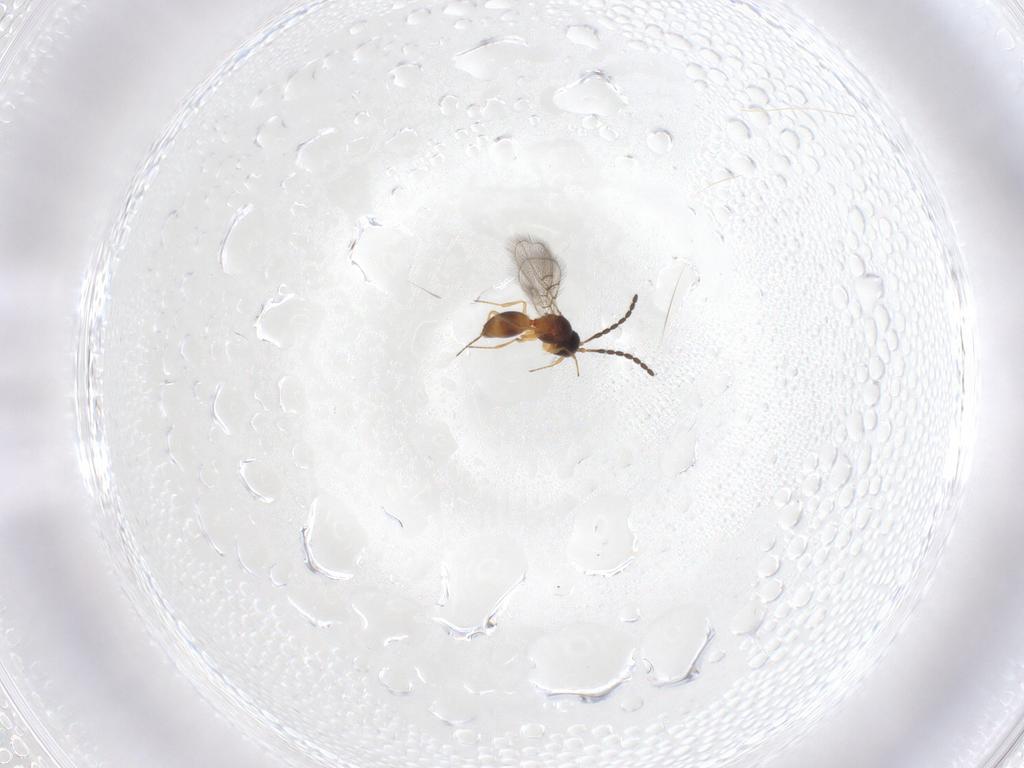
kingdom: Animalia
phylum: Arthropoda
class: Insecta
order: Hymenoptera
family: Figitidae
